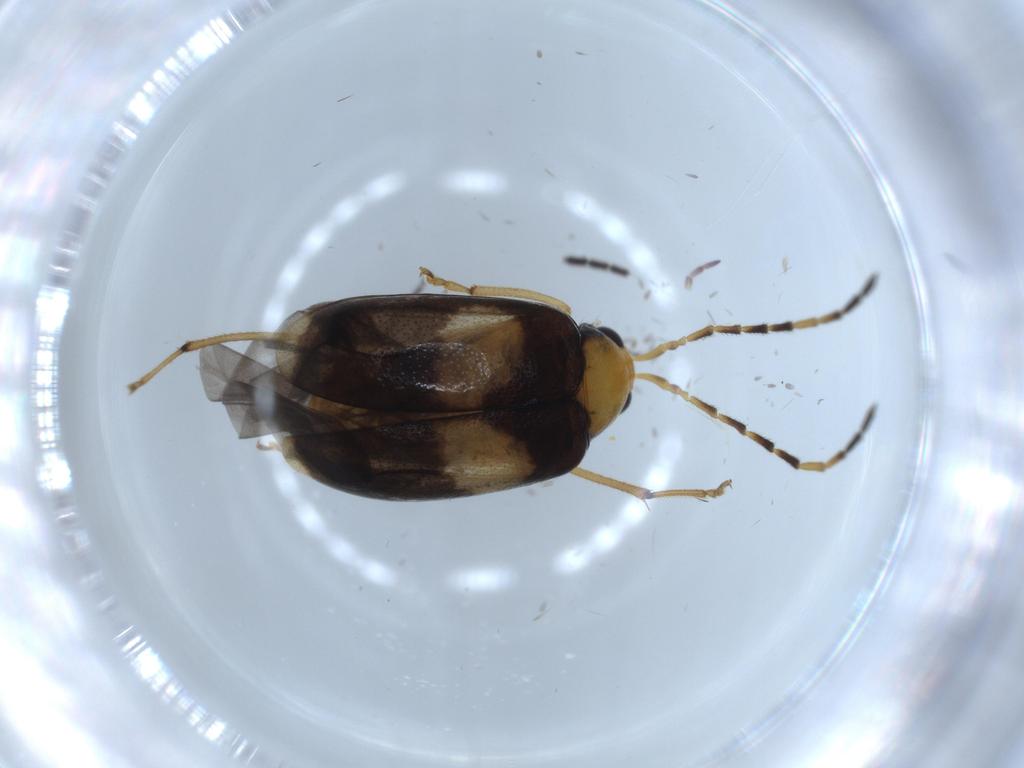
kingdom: Animalia
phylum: Arthropoda
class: Insecta
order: Coleoptera
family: Chrysomelidae
